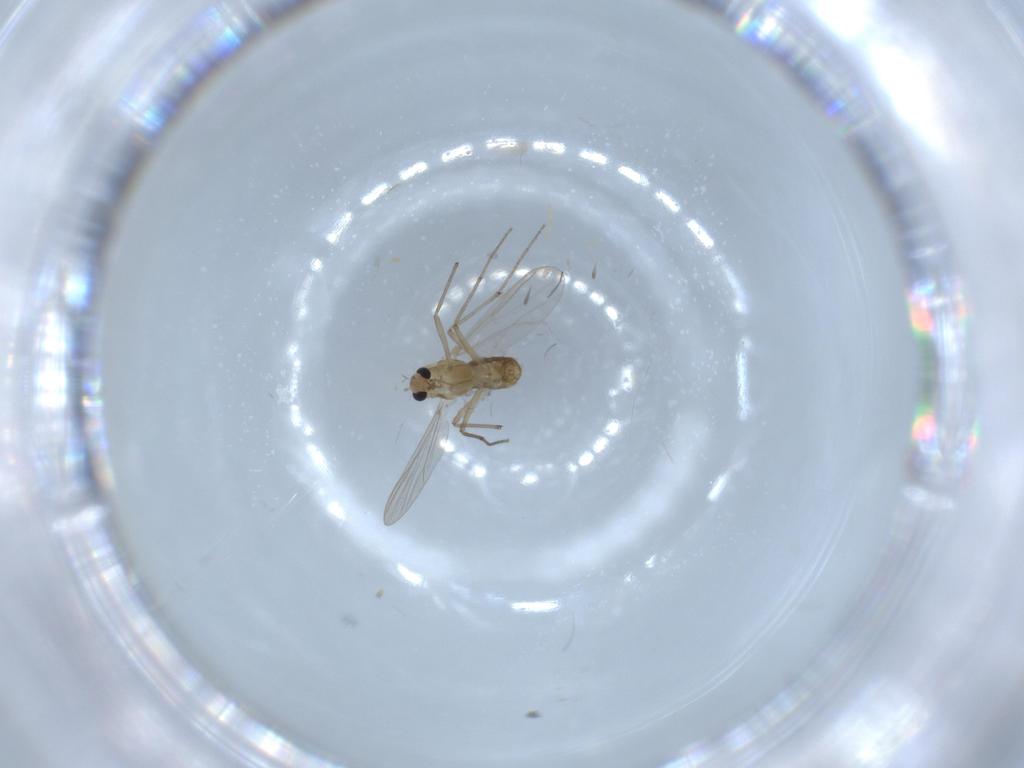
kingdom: Animalia
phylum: Arthropoda
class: Insecta
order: Diptera
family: Chironomidae
